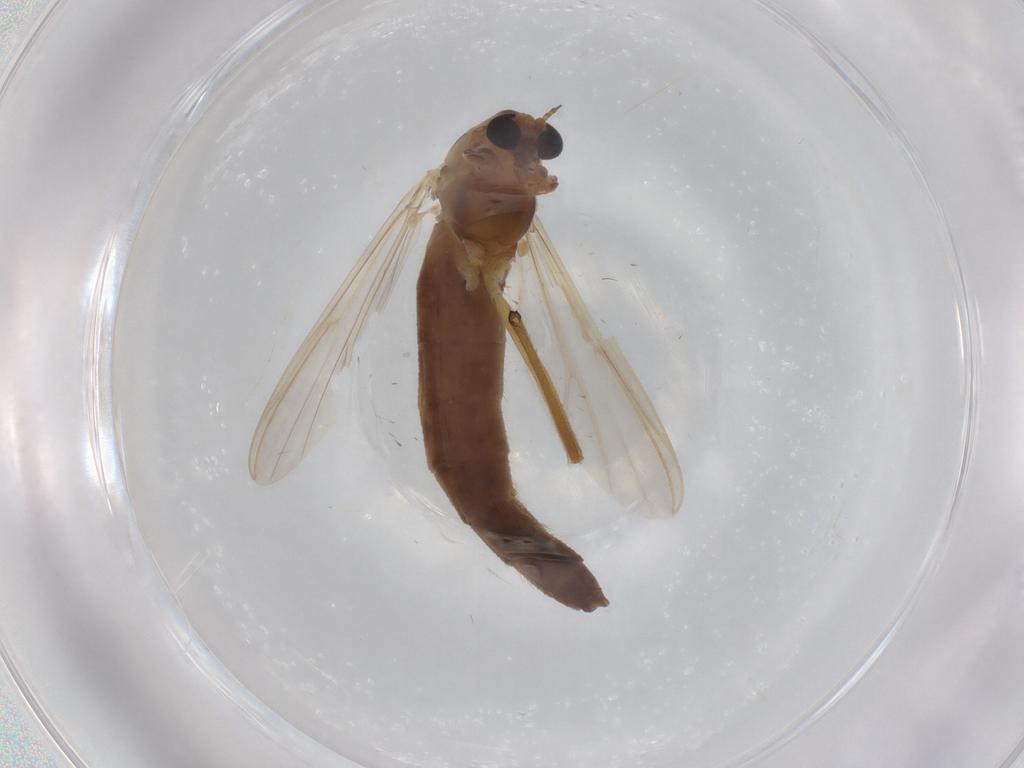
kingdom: Animalia
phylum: Arthropoda
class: Insecta
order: Diptera
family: Chironomidae
